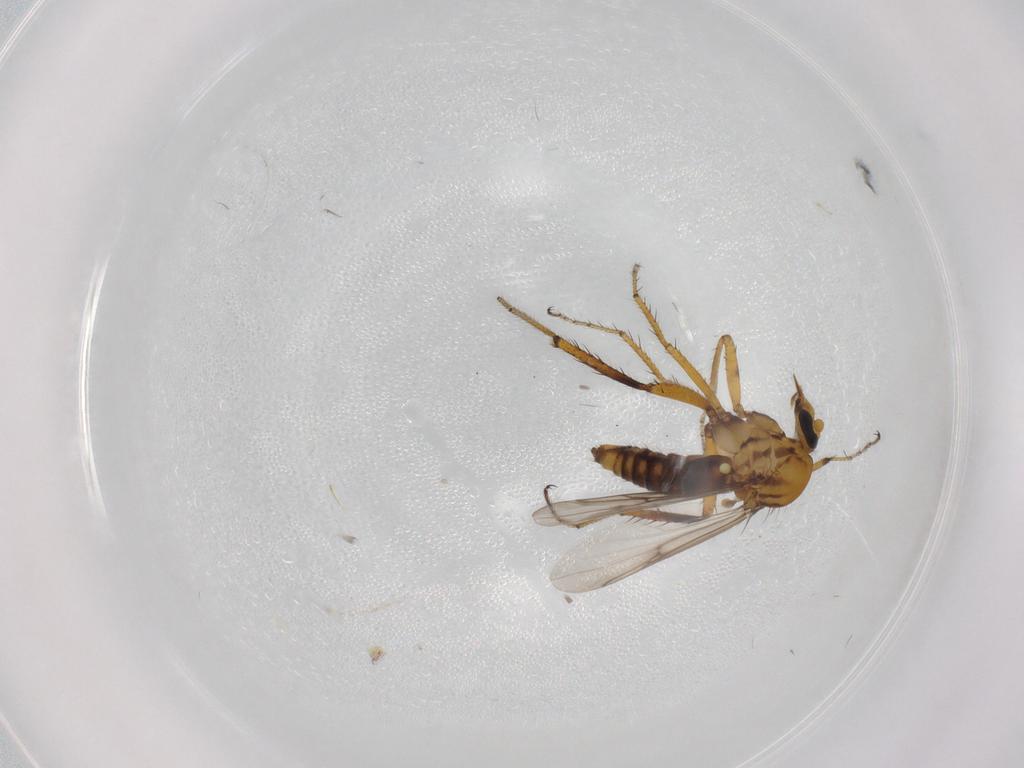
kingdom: Animalia
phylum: Arthropoda
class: Insecta
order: Diptera
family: Ceratopogonidae
